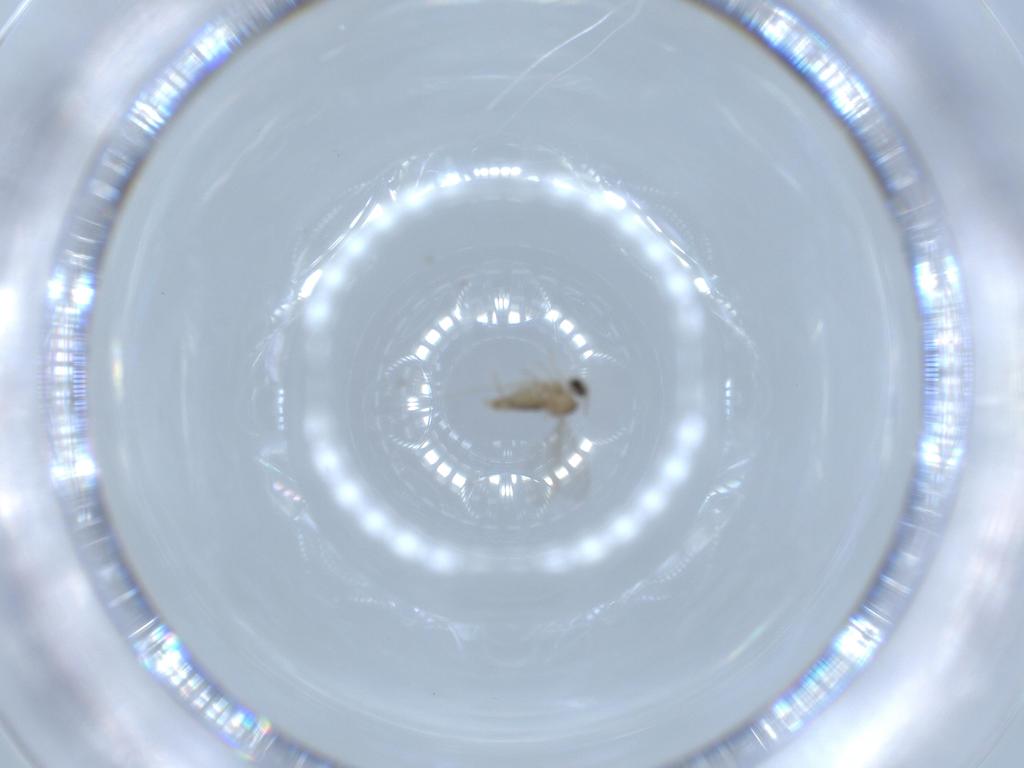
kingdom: Animalia
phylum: Arthropoda
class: Insecta
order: Diptera
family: Cecidomyiidae
